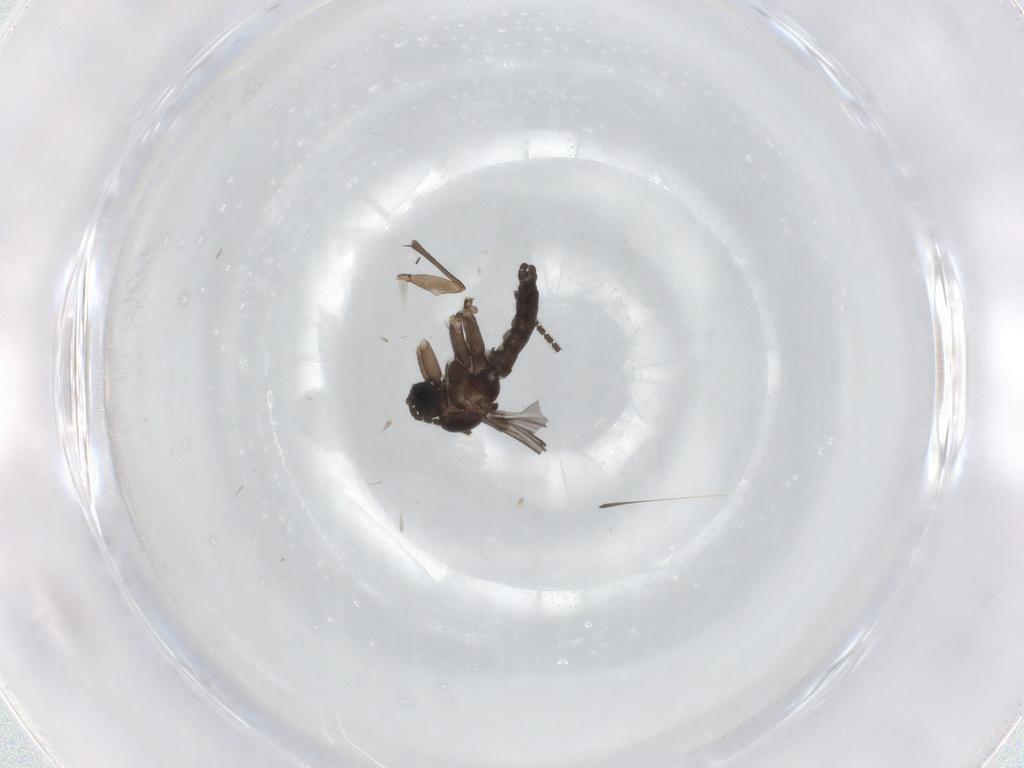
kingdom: Animalia
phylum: Arthropoda
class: Insecta
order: Diptera
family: Sciaridae
